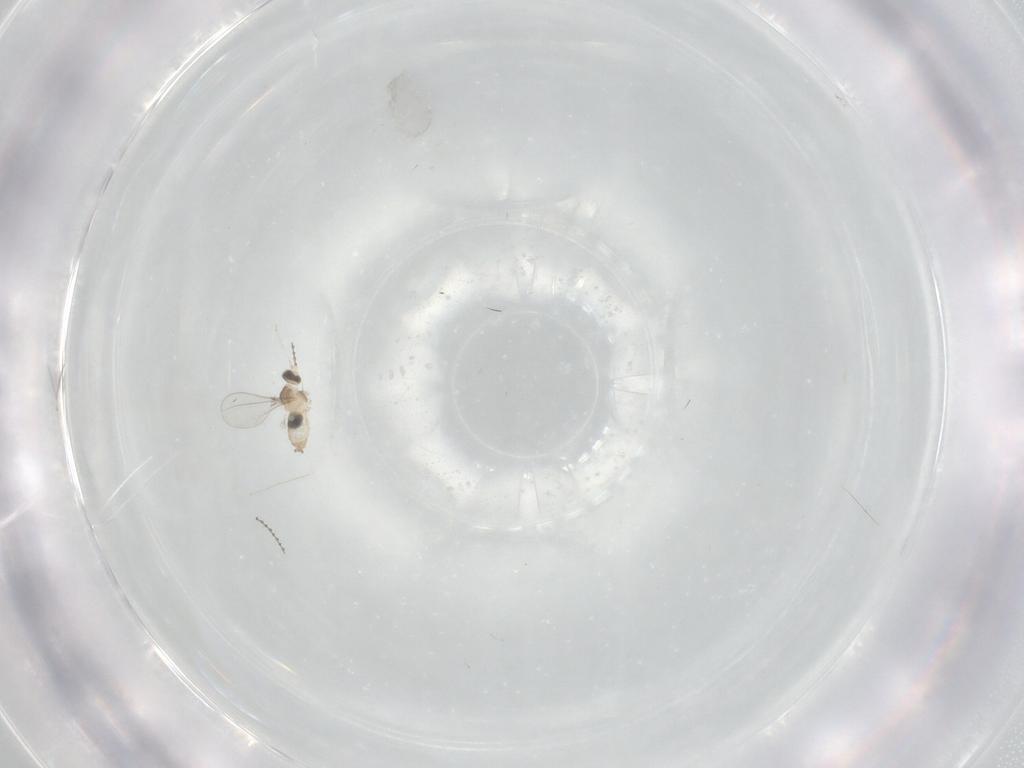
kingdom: Animalia
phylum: Arthropoda
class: Insecta
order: Diptera
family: Cecidomyiidae
